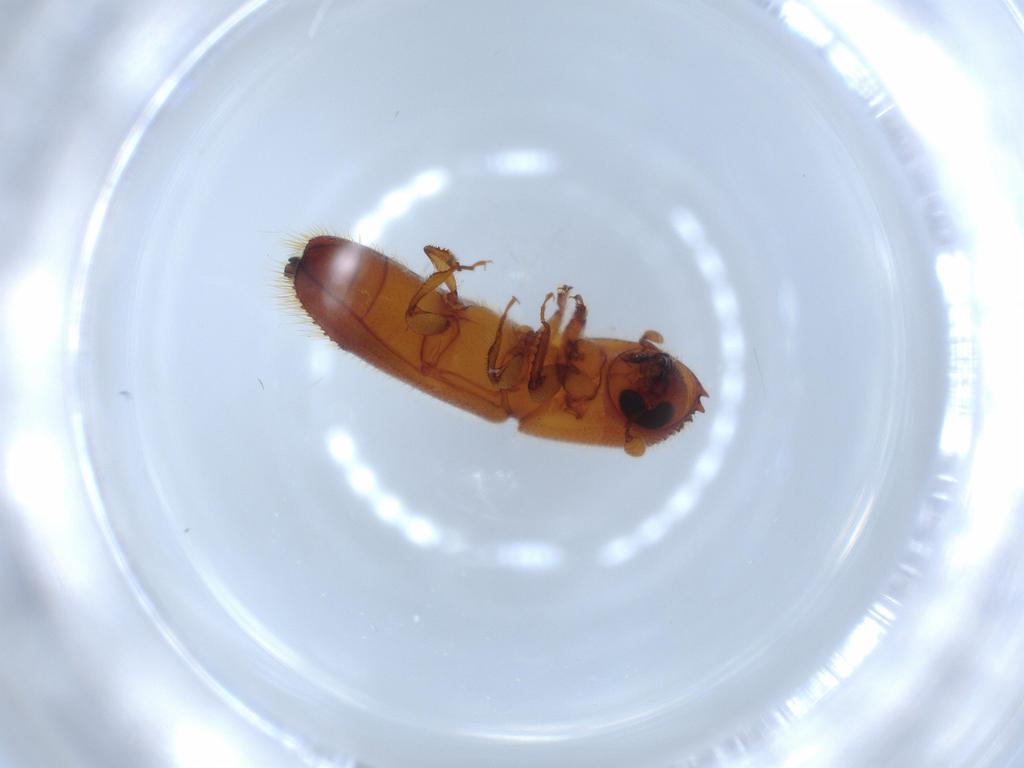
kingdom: Animalia
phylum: Arthropoda
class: Insecta
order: Coleoptera
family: Curculionidae
